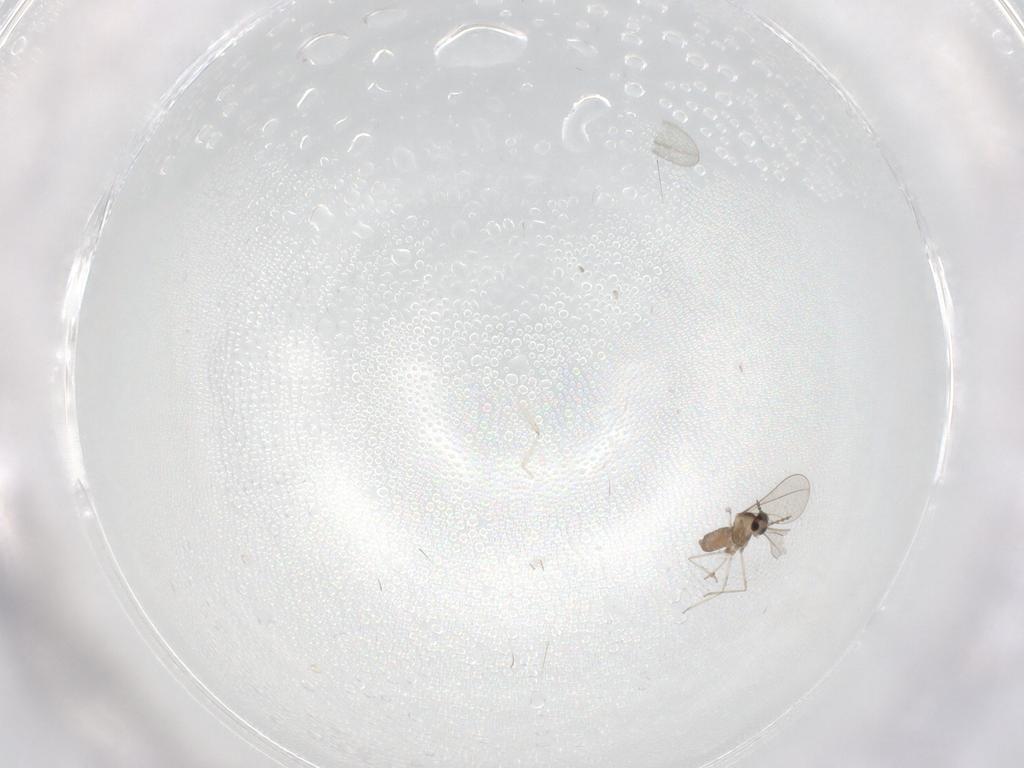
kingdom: Animalia
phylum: Arthropoda
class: Insecta
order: Diptera
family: Cecidomyiidae
